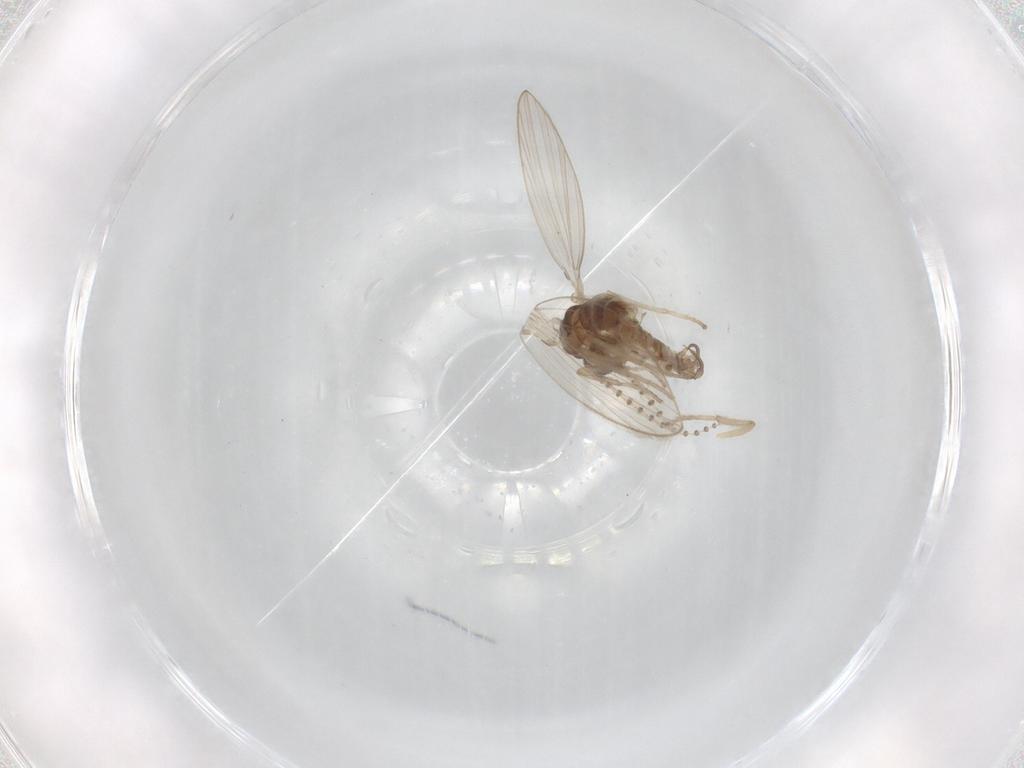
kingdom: Animalia
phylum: Arthropoda
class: Insecta
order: Diptera
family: Psychodidae
